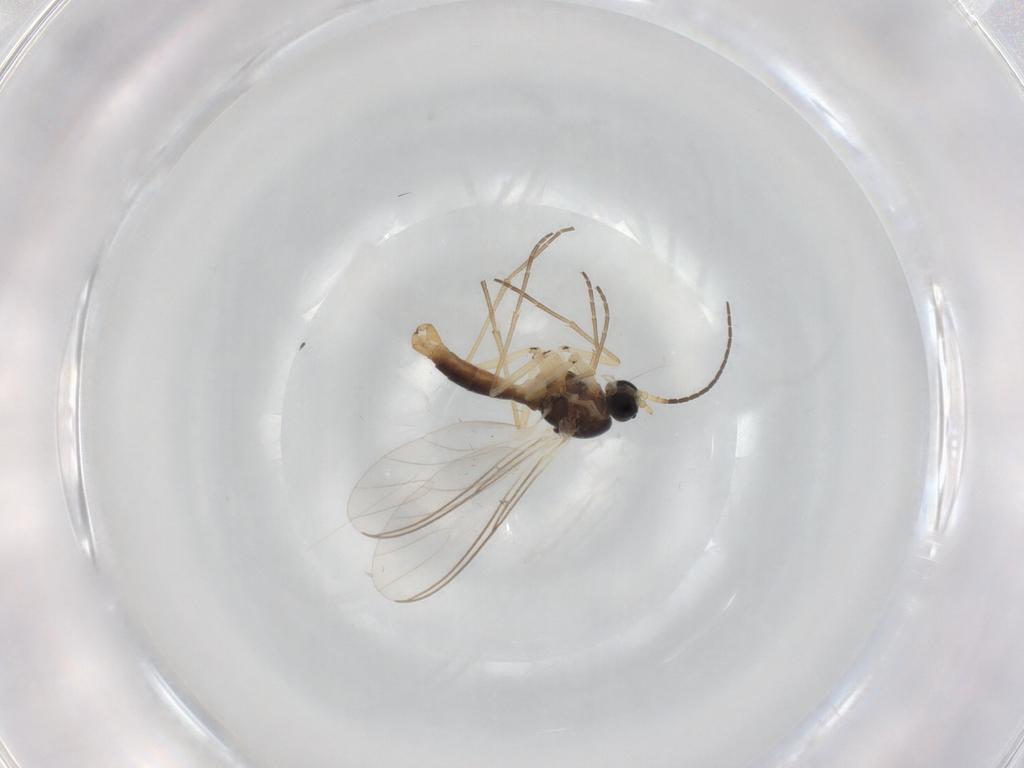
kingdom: Animalia
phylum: Arthropoda
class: Insecta
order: Diptera
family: Sciaridae
